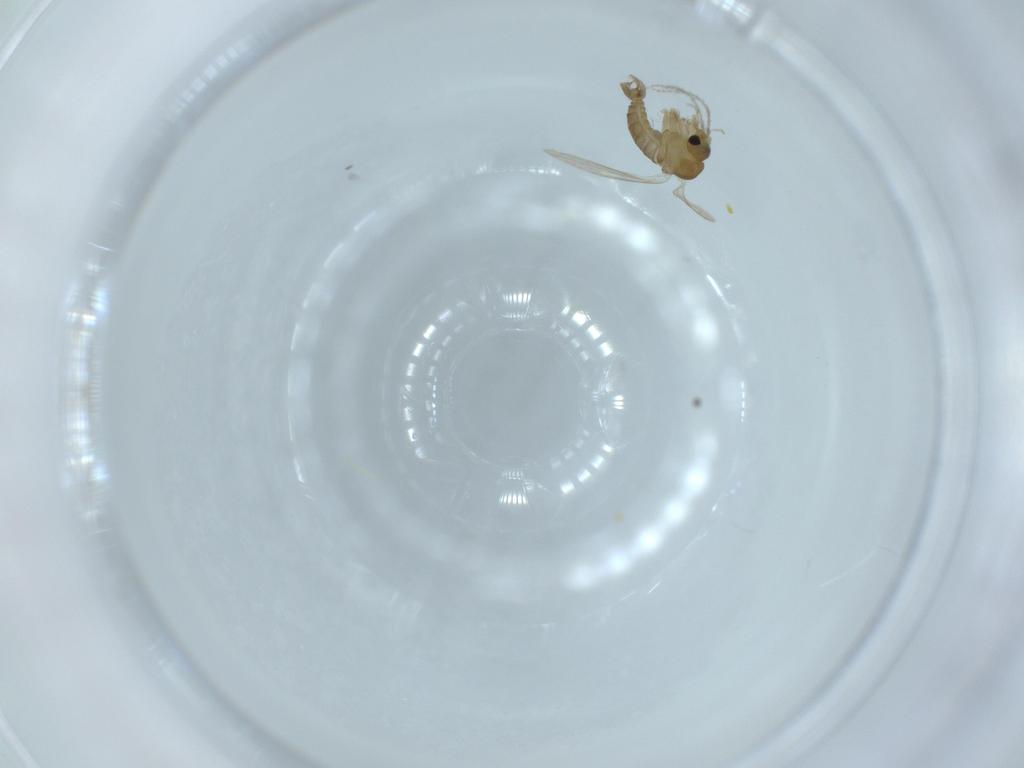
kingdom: Animalia
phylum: Arthropoda
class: Insecta
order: Diptera
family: Psychodidae
